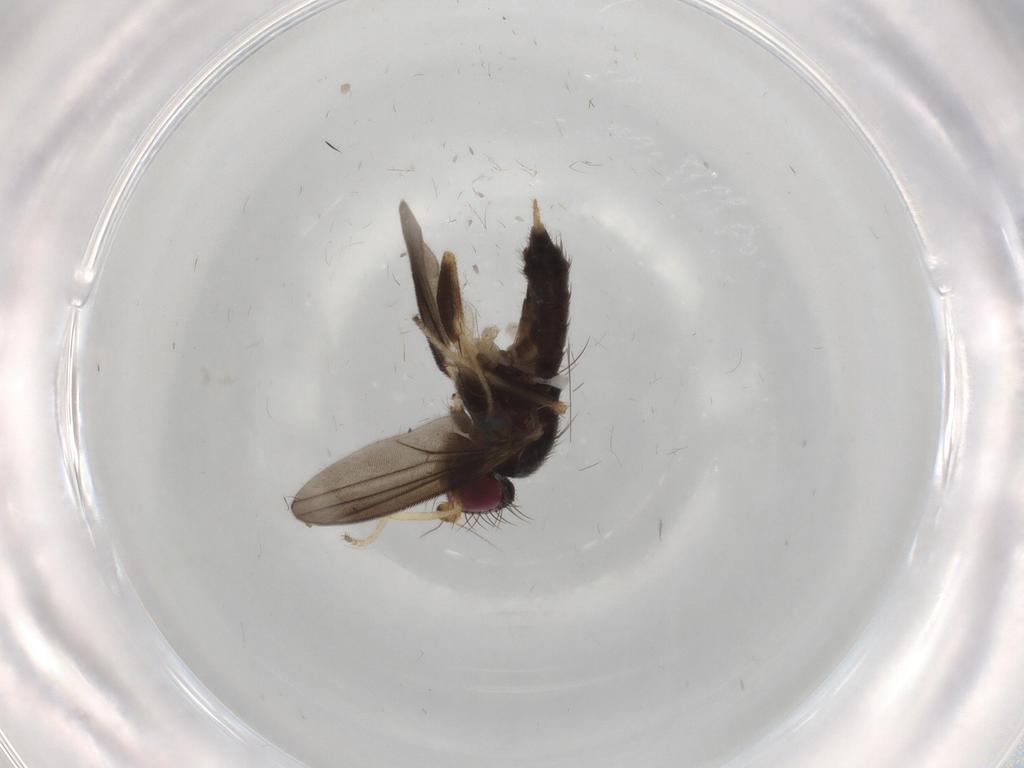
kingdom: Animalia
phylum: Arthropoda
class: Insecta
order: Diptera
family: Clusiidae
